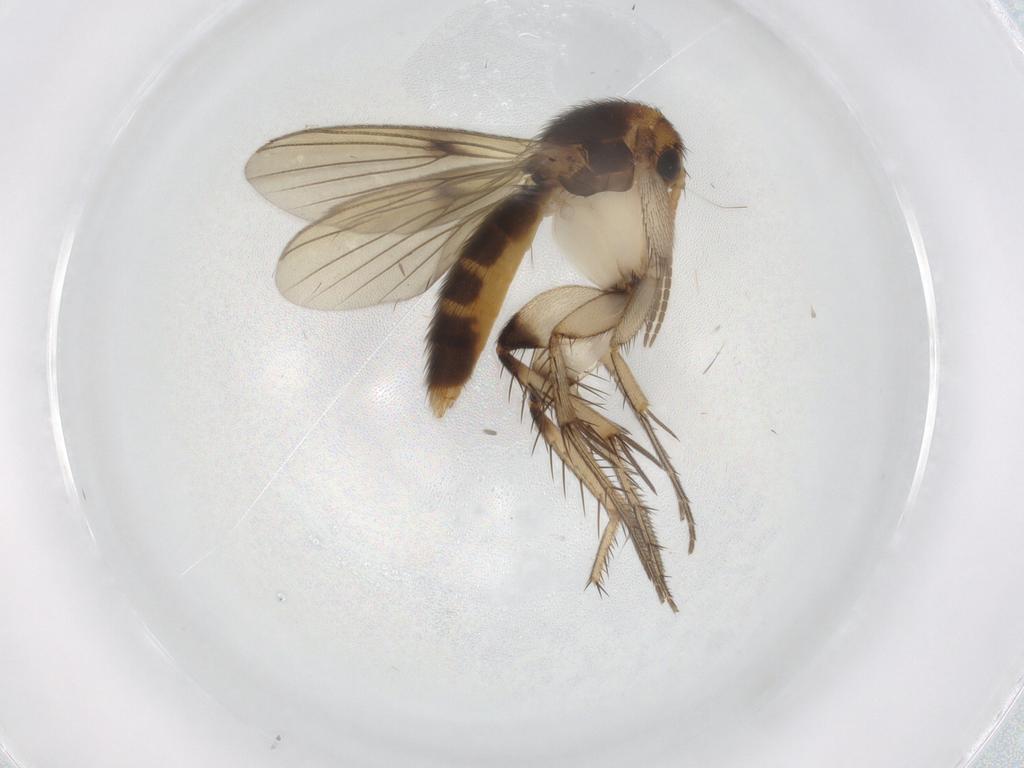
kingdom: Animalia
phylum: Arthropoda
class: Insecta
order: Diptera
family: Mycetophilidae
